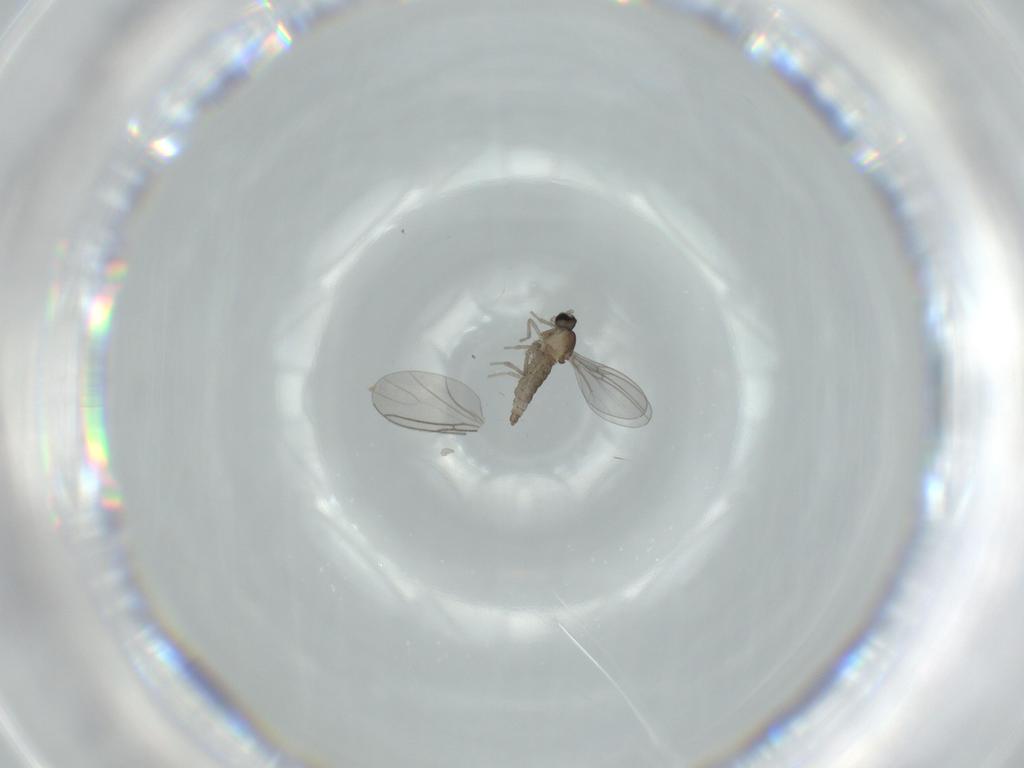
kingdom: Animalia
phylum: Arthropoda
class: Insecta
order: Diptera
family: Cecidomyiidae
